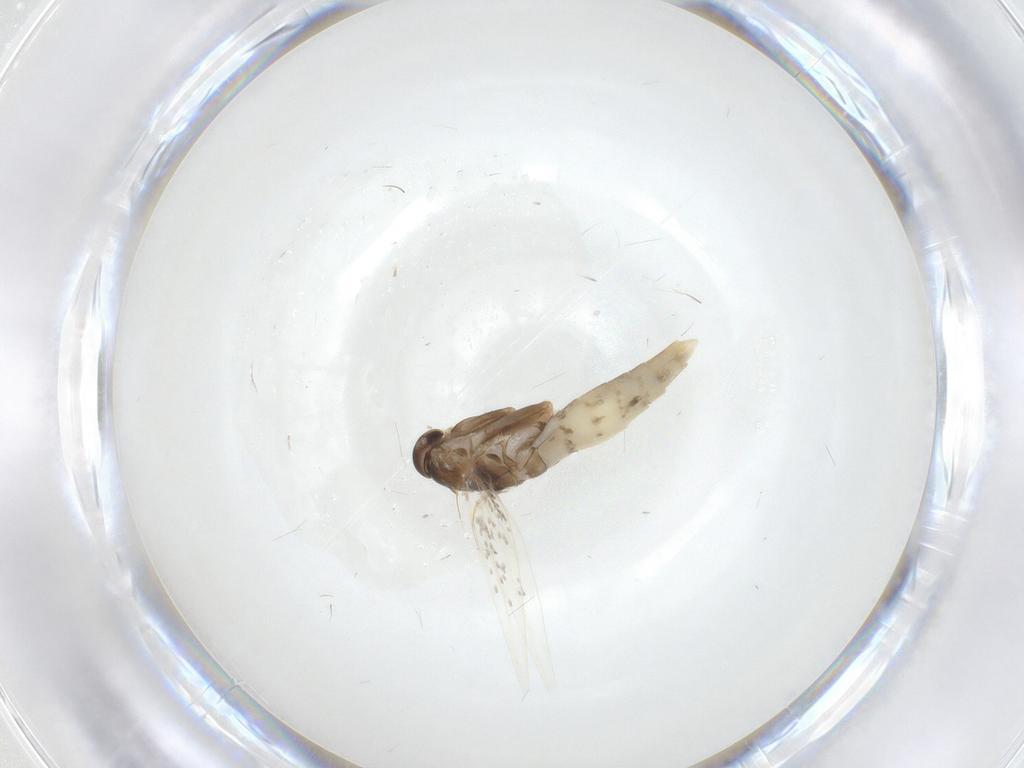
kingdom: Animalia
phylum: Arthropoda
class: Insecta
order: Lepidoptera
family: Elachistidae
